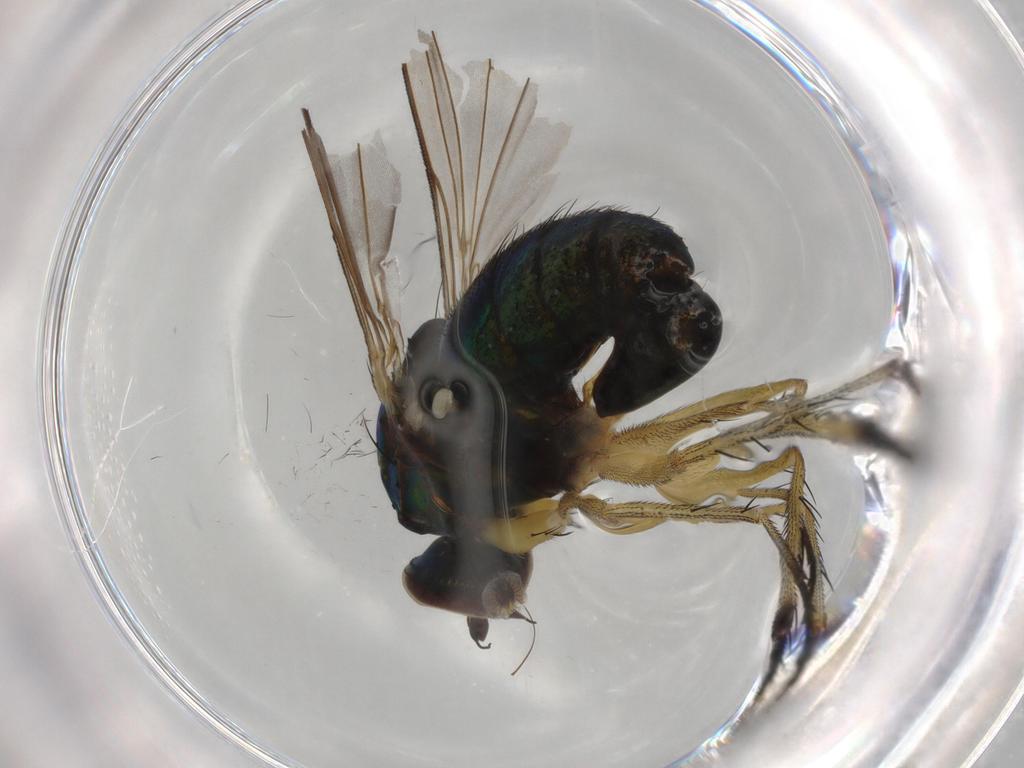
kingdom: Animalia
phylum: Arthropoda
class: Insecta
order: Diptera
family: Dolichopodidae
